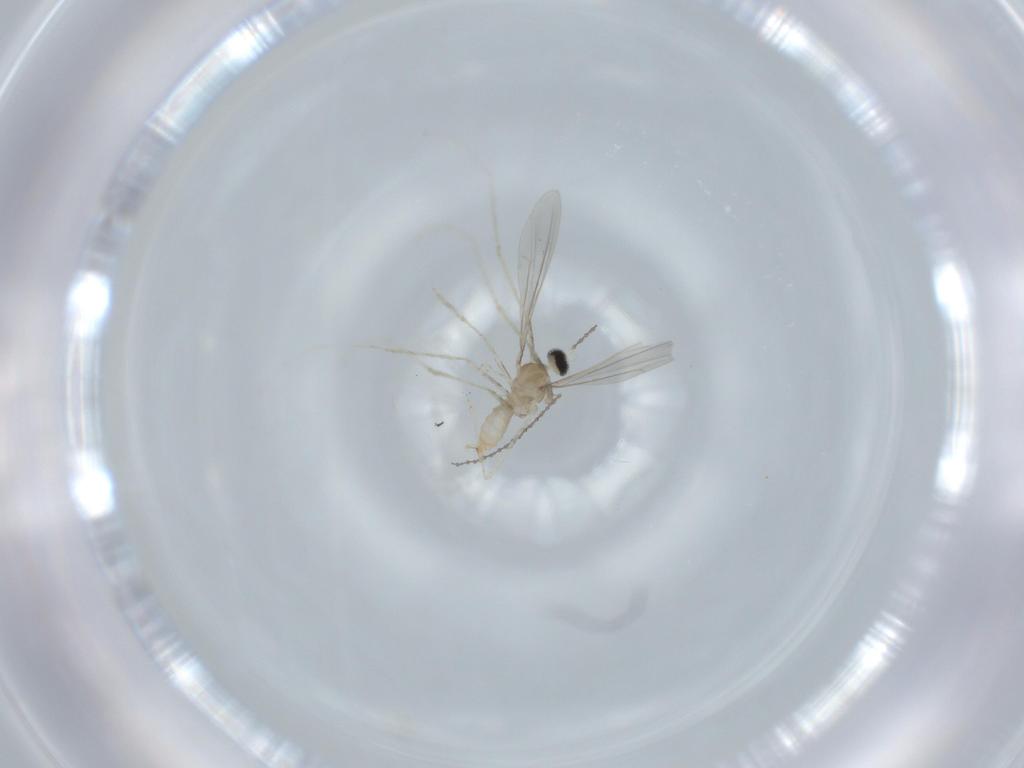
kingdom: Animalia
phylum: Arthropoda
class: Insecta
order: Diptera
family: Cecidomyiidae
